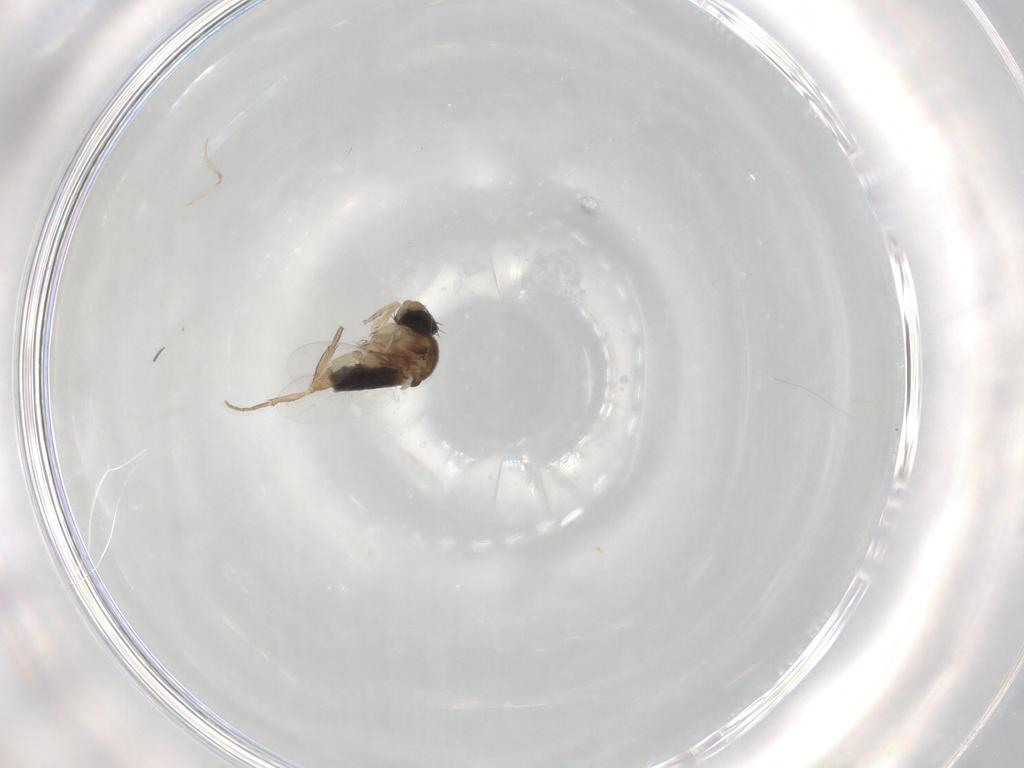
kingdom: Animalia
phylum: Arthropoda
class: Insecta
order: Diptera
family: Phoridae
